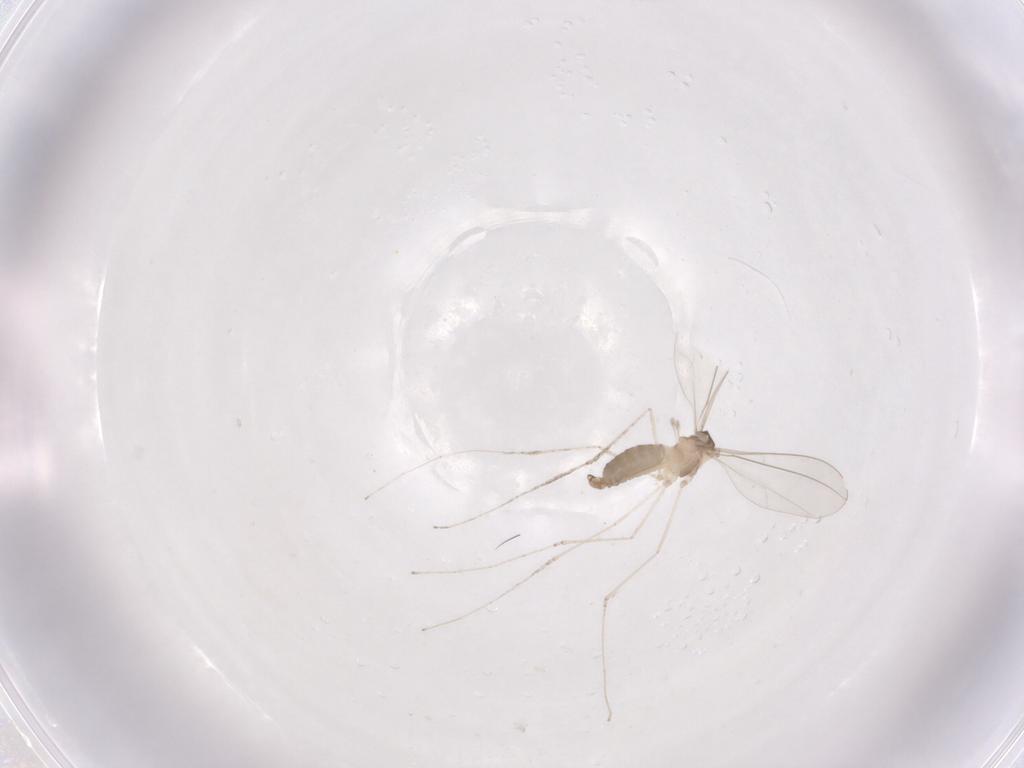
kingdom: Animalia
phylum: Arthropoda
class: Insecta
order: Diptera
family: Cecidomyiidae
